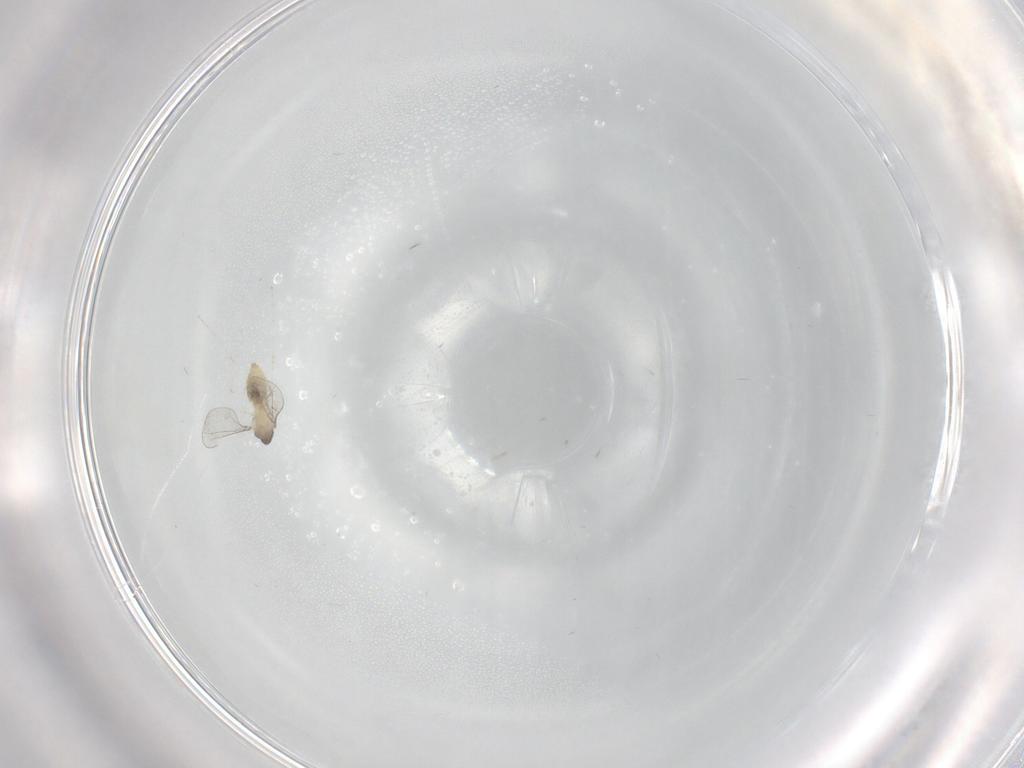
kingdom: Animalia
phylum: Arthropoda
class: Insecta
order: Diptera
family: Cecidomyiidae
